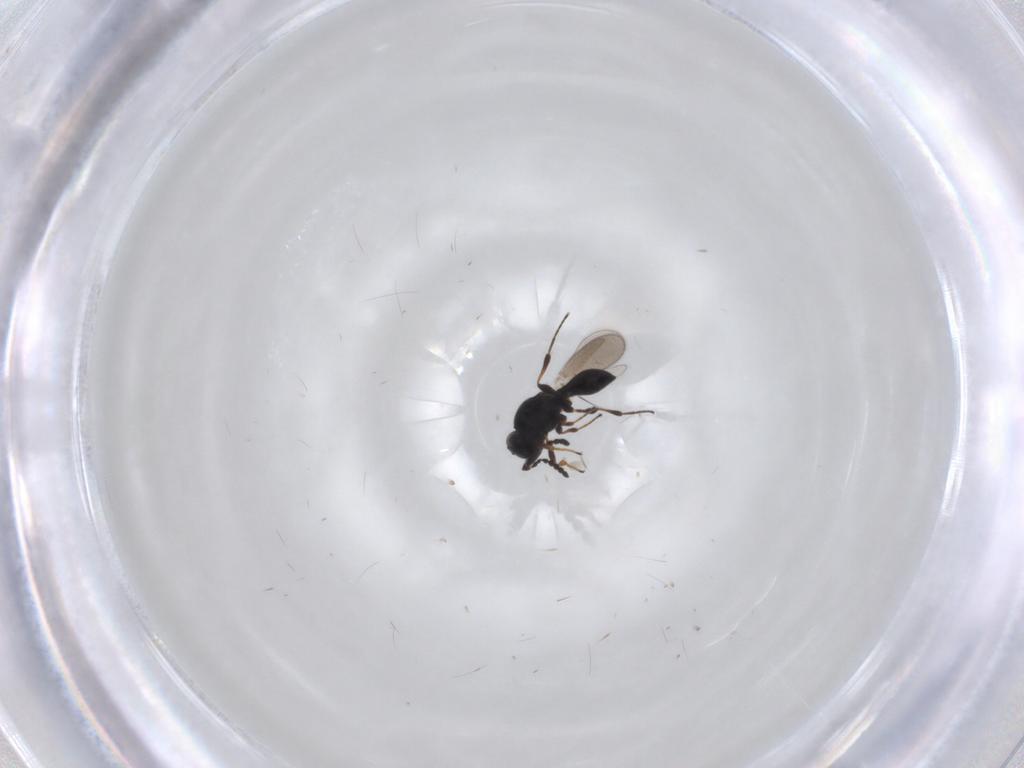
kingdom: Animalia
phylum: Arthropoda
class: Insecta
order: Hymenoptera
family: Platygastridae
